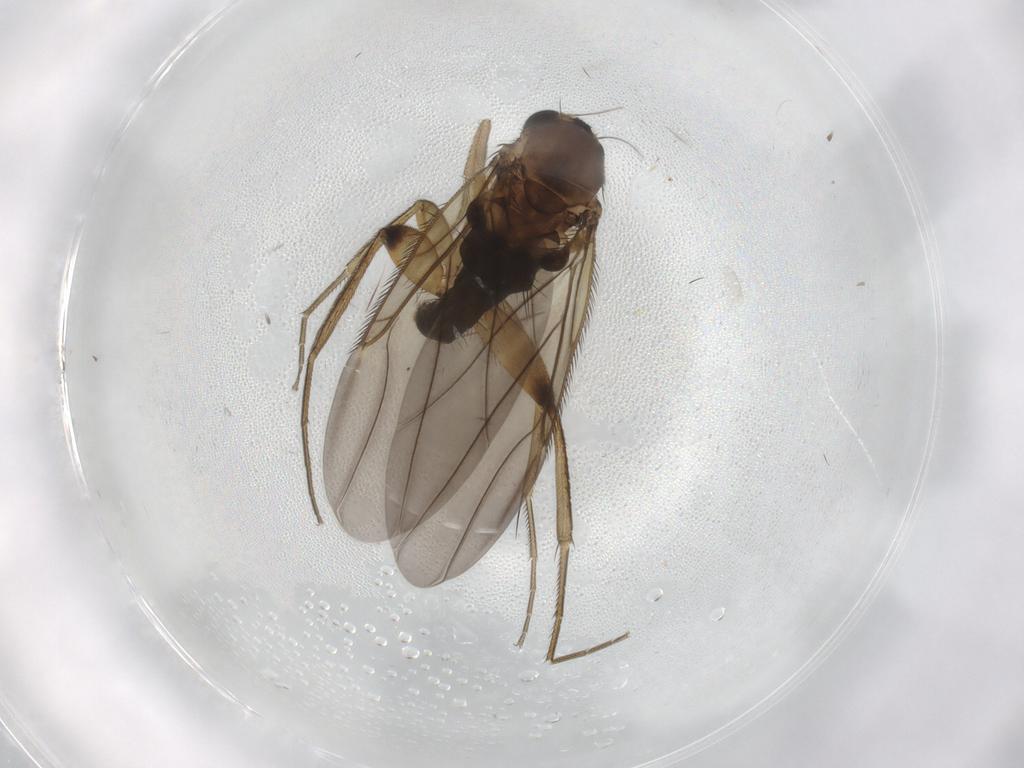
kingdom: Animalia
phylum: Arthropoda
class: Insecta
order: Diptera
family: Phoridae
